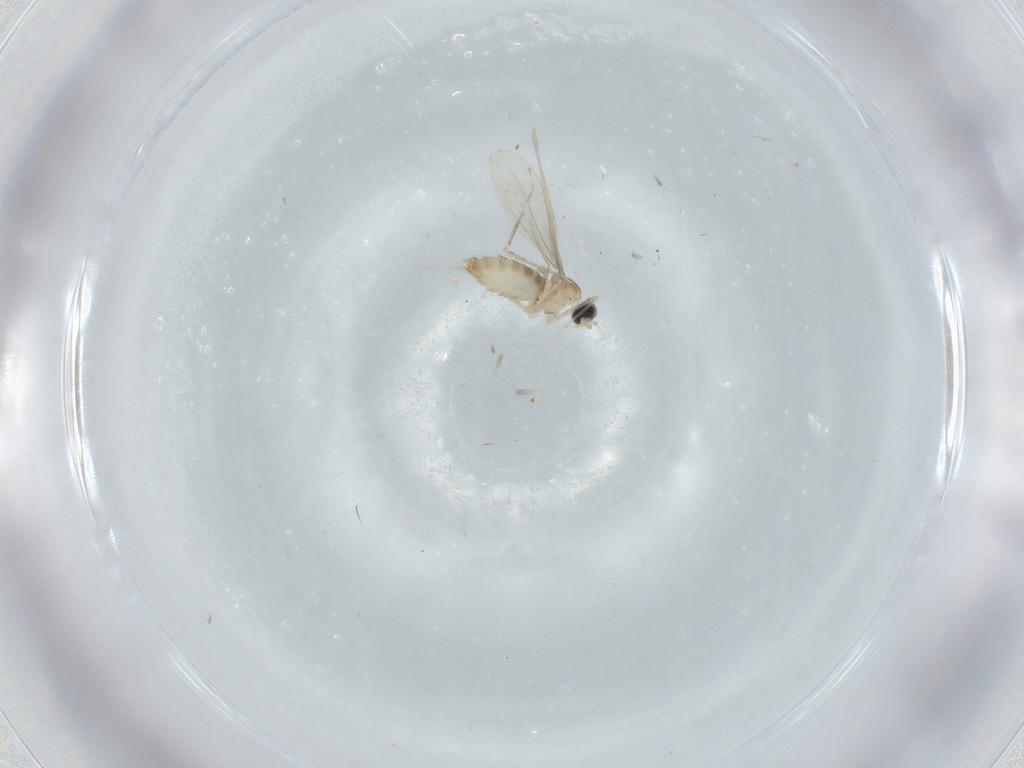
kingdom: Animalia
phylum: Arthropoda
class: Insecta
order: Diptera
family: Cecidomyiidae
